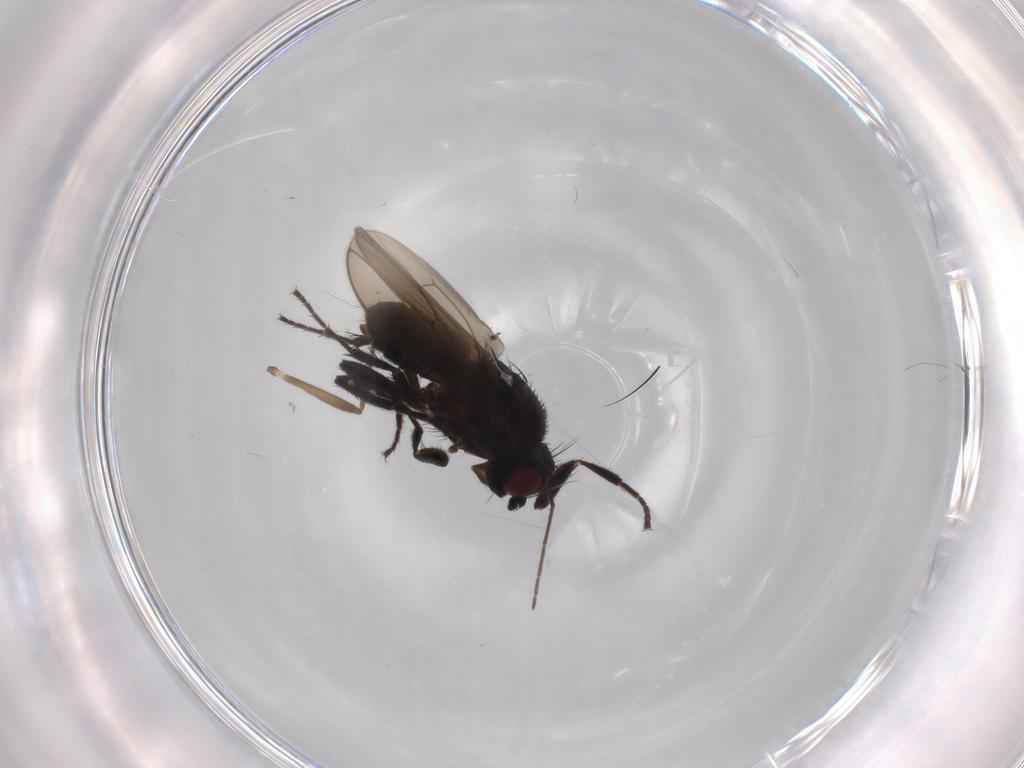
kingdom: Animalia
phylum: Arthropoda
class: Insecta
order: Diptera
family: Sphaeroceridae
